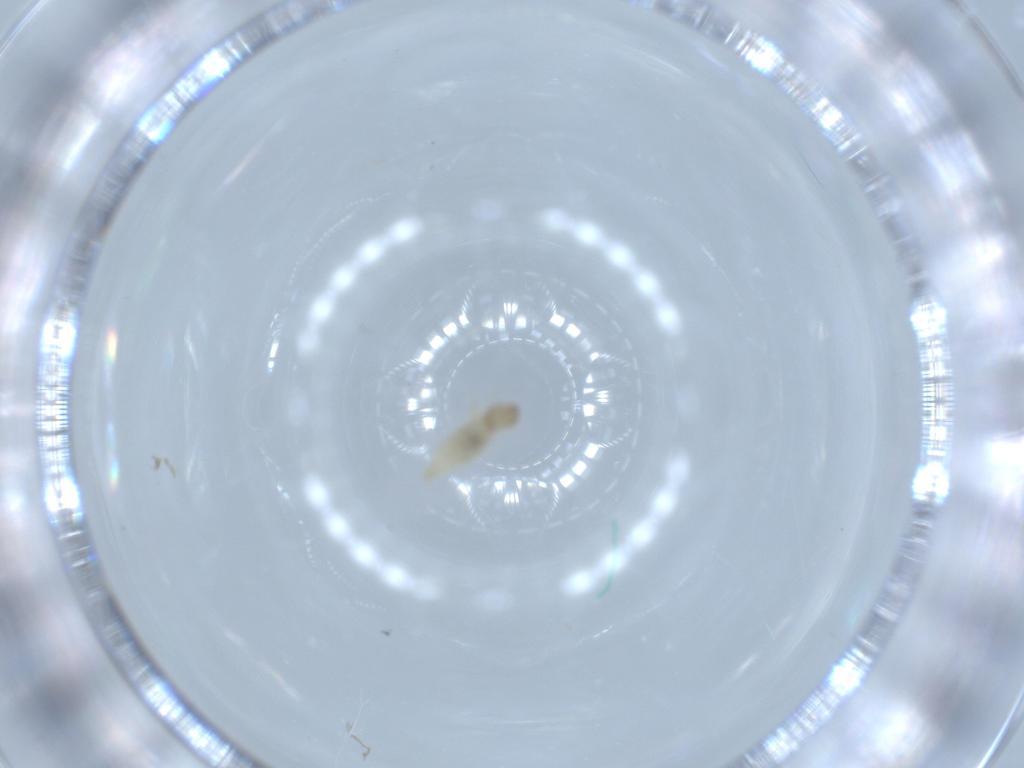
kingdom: Animalia
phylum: Arthropoda
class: Insecta
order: Diptera
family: Cecidomyiidae
